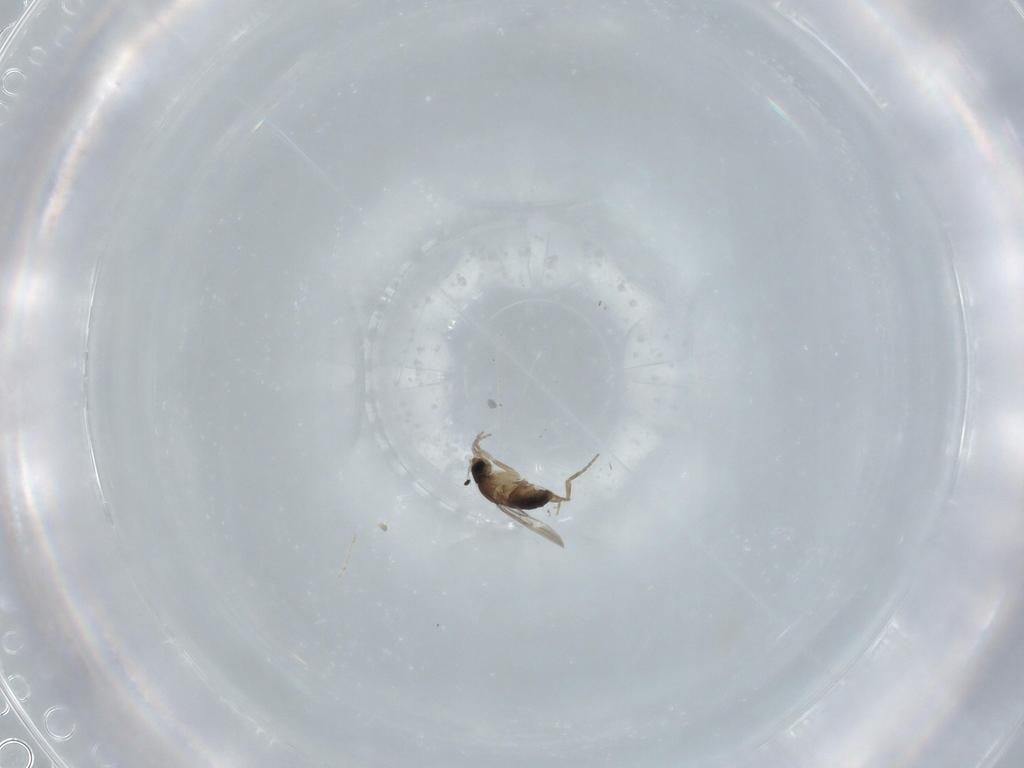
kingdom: Animalia
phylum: Arthropoda
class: Insecta
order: Diptera
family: Phoridae
